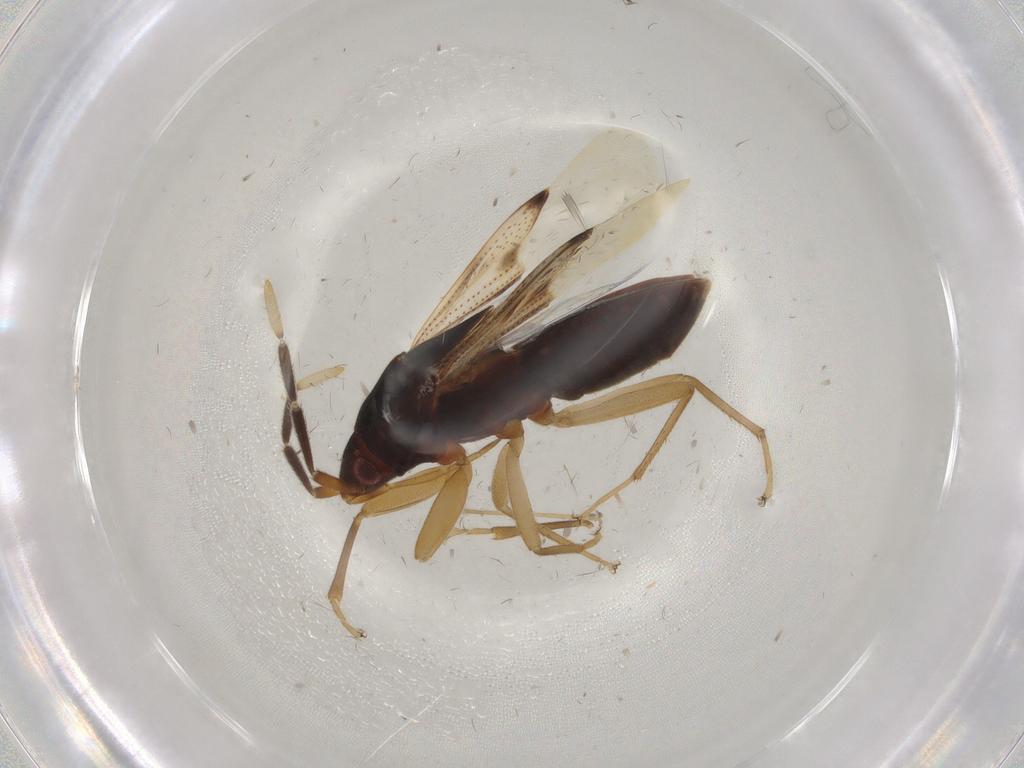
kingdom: Animalia
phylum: Arthropoda
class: Insecta
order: Hemiptera
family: Rhyparochromidae
